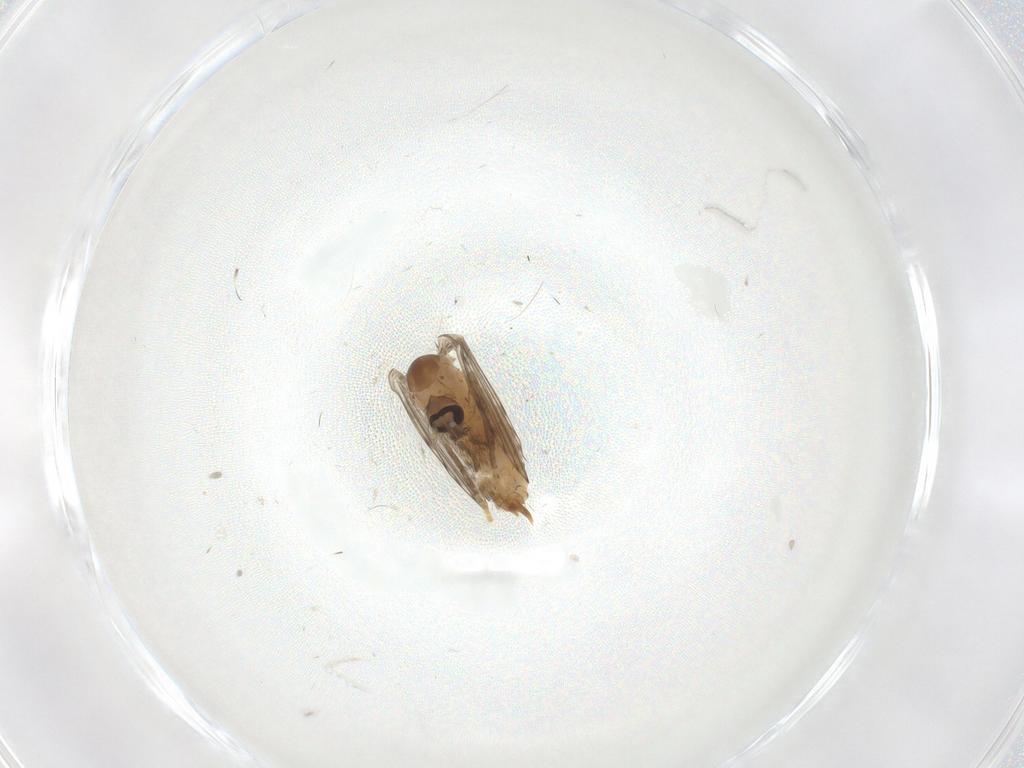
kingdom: Animalia
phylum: Arthropoda
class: Insecta
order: Diptera
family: Psychodidae
